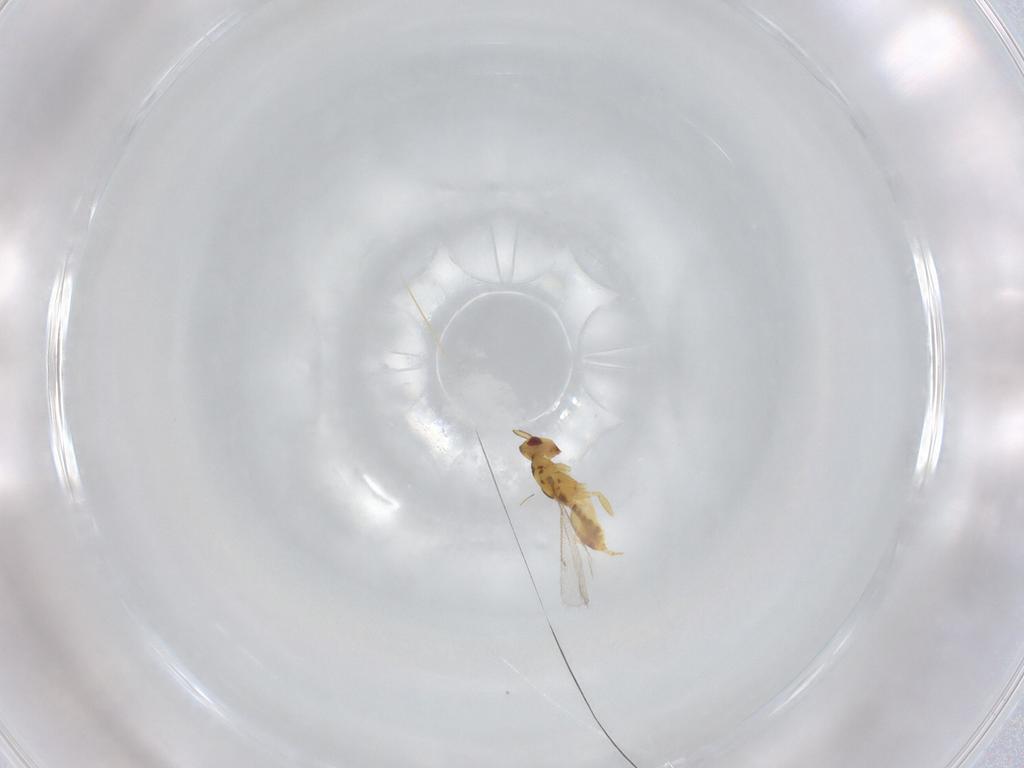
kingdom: Animalia
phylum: Arthropoda
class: Insecta
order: Hymenoptera
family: Eulophidae
